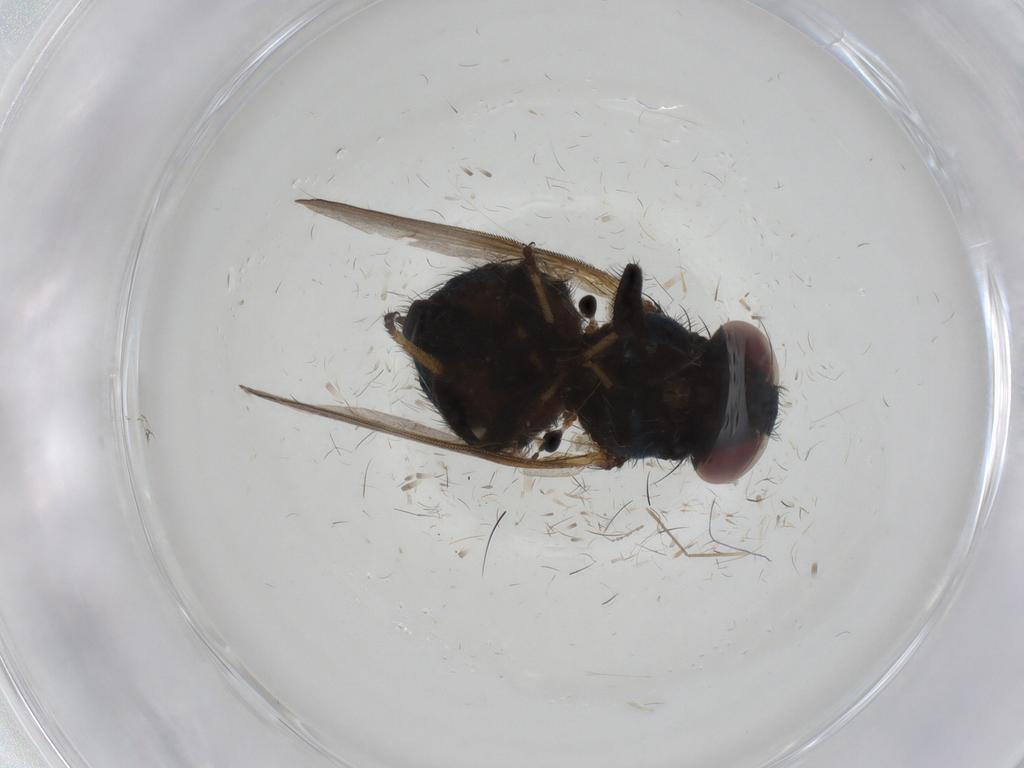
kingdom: Animalia
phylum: Arthropoda
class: Insecta
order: Diptera
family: Lonchaeidae
